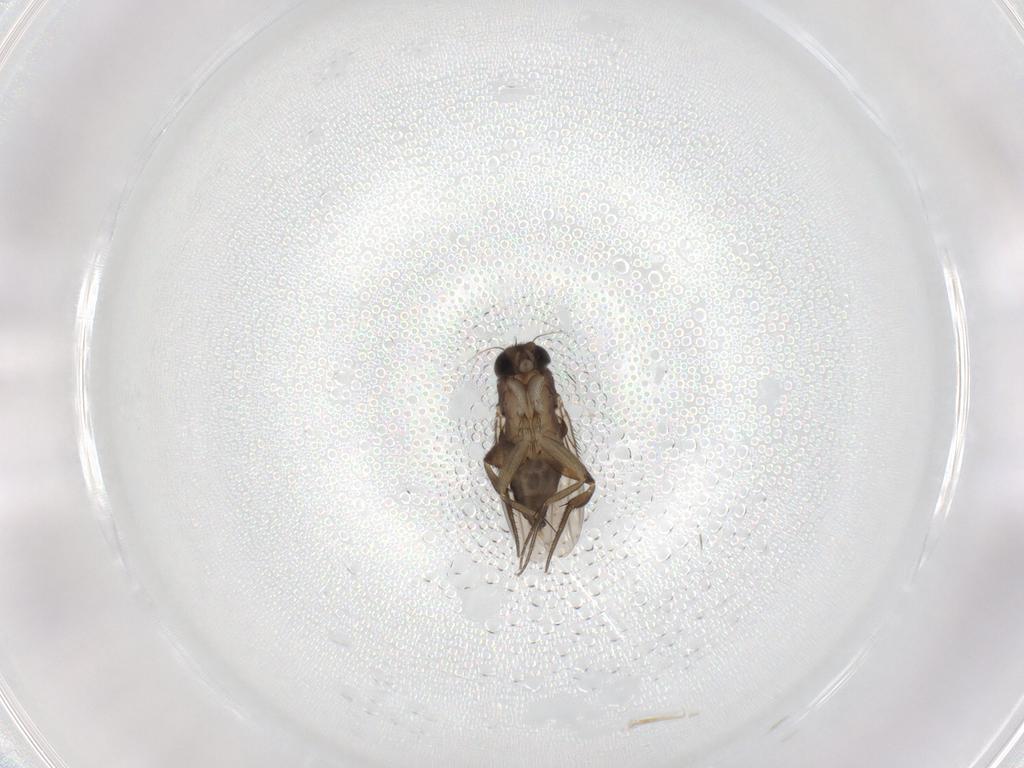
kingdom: Animalia
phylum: Arthropoda
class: Insecta
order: Diptera
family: Phoridae
